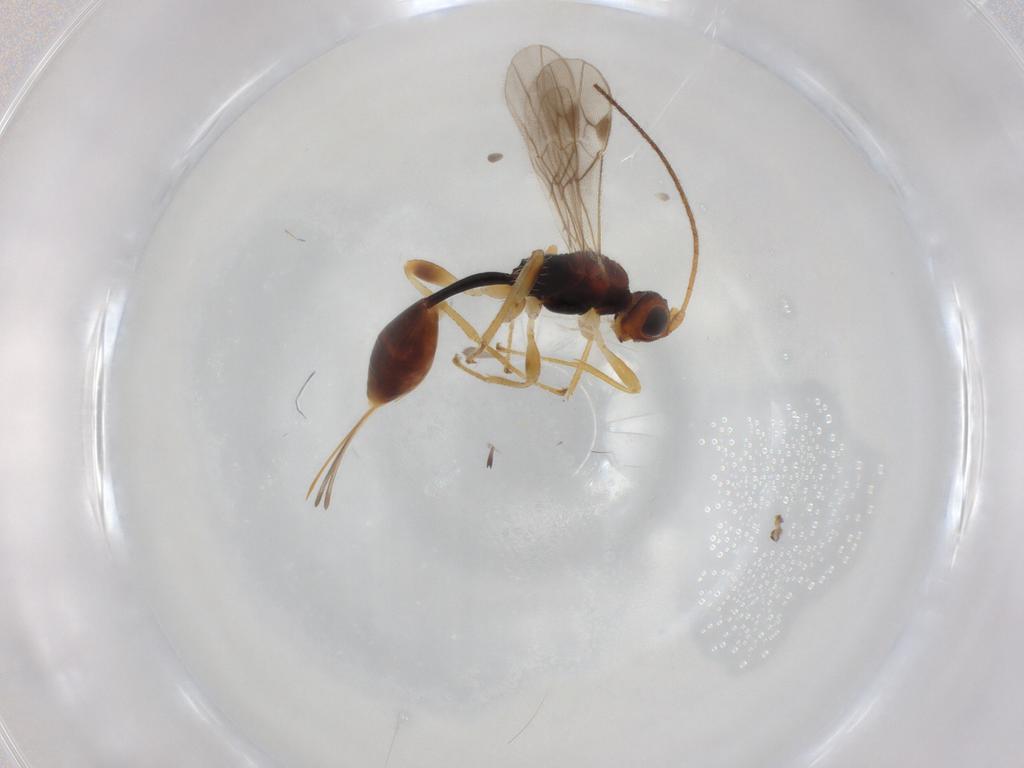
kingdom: Animalia
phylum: Arthropoda
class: Insecta
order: Hymenoptera
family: Braconidae
